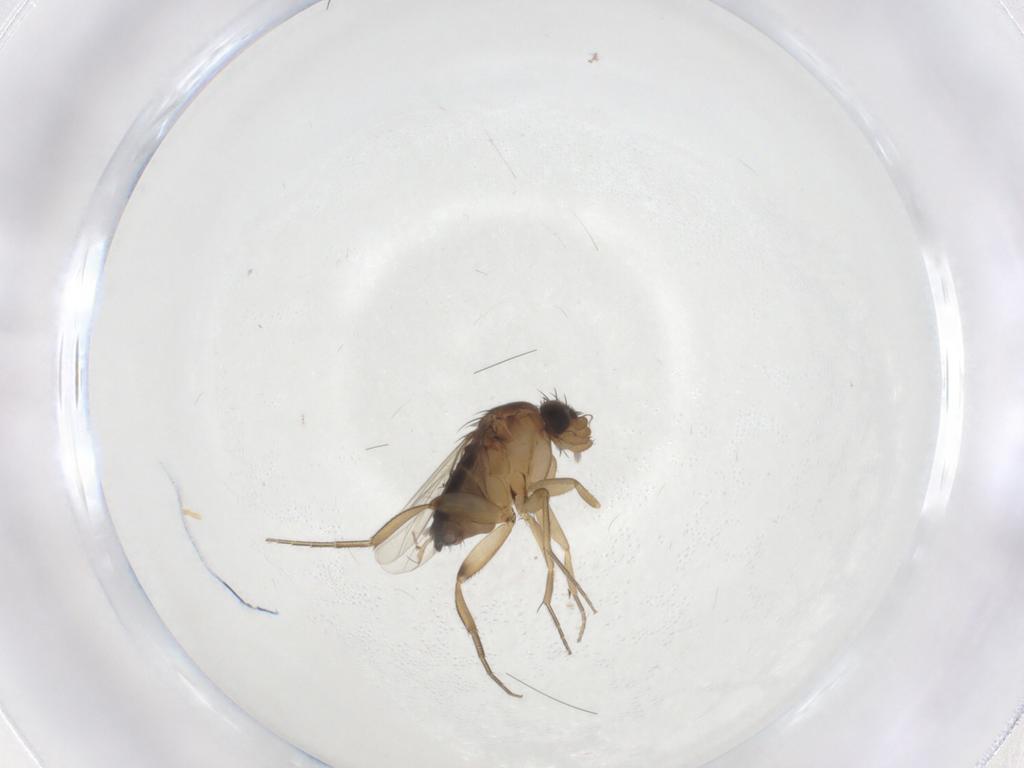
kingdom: Animalia
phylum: Arthropoda
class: Insecta
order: Diptera
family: Phoridae
